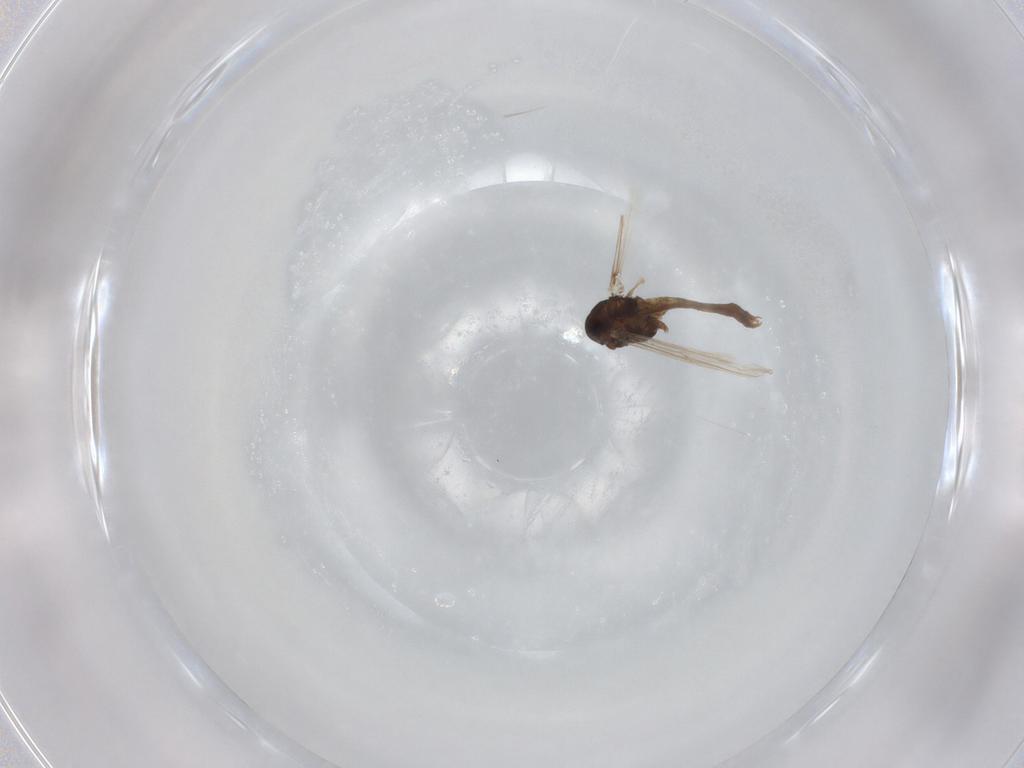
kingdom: Animalia
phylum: Arthropoda
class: Insecta
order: Diptera
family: Chironomidae
